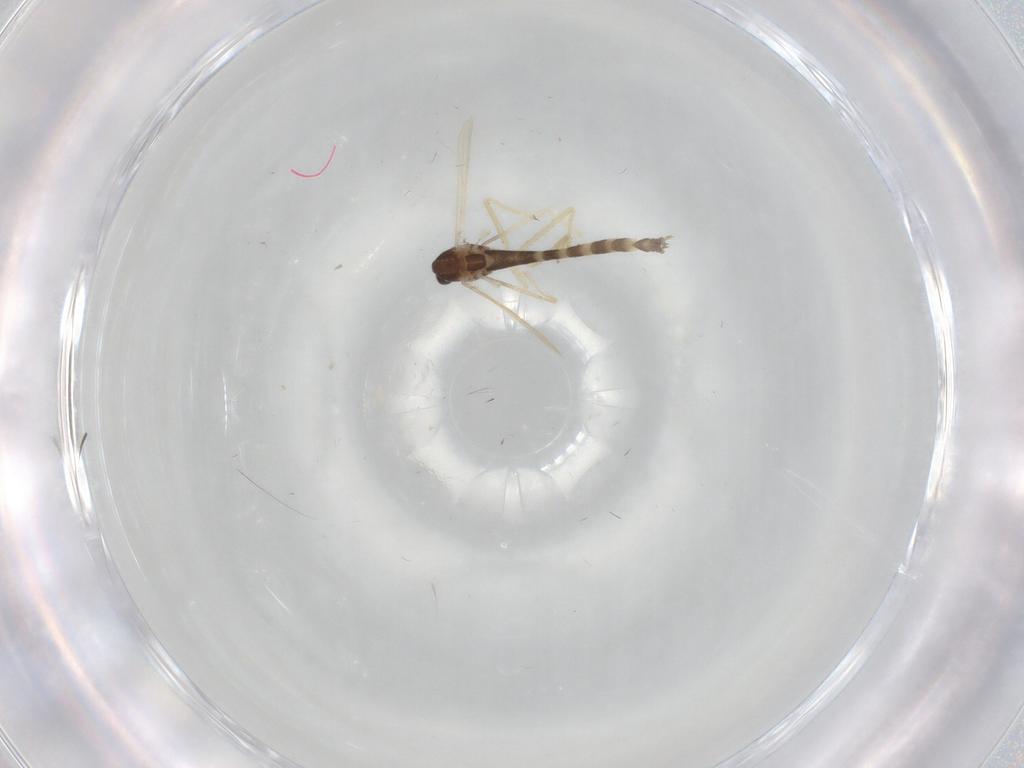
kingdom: Animalia
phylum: Arthropoda
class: Insecta
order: Diptera
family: Chironomidae
